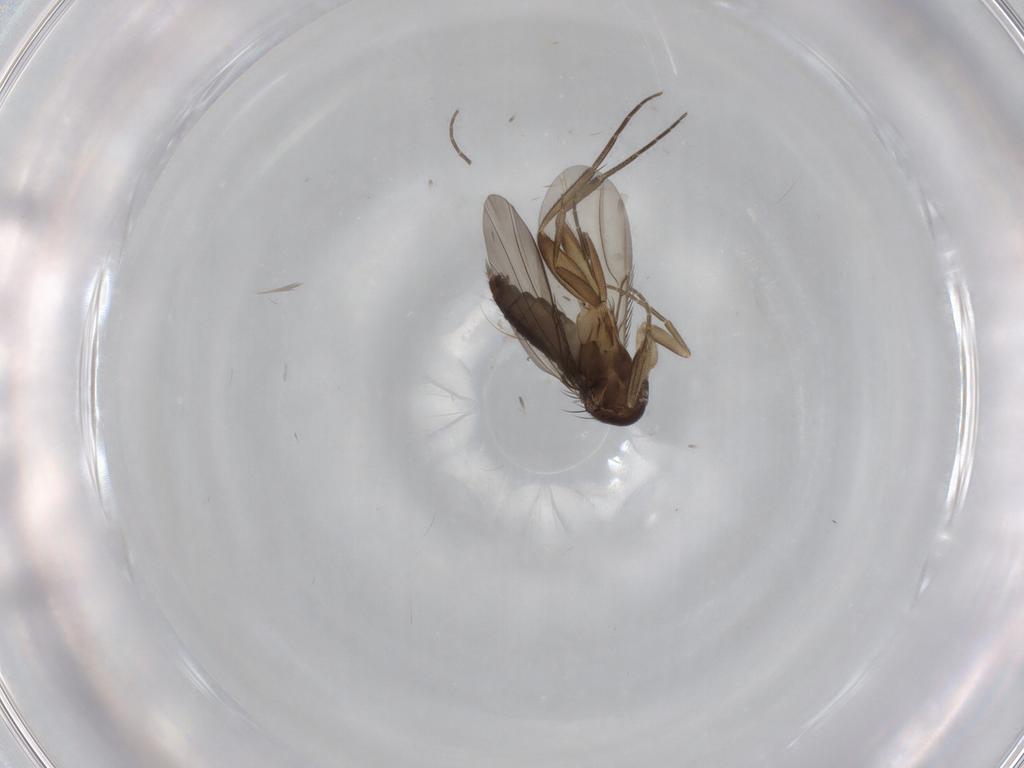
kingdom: Animalia
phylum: Arthropoda
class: Insecta
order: Diptera
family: Phoridae
